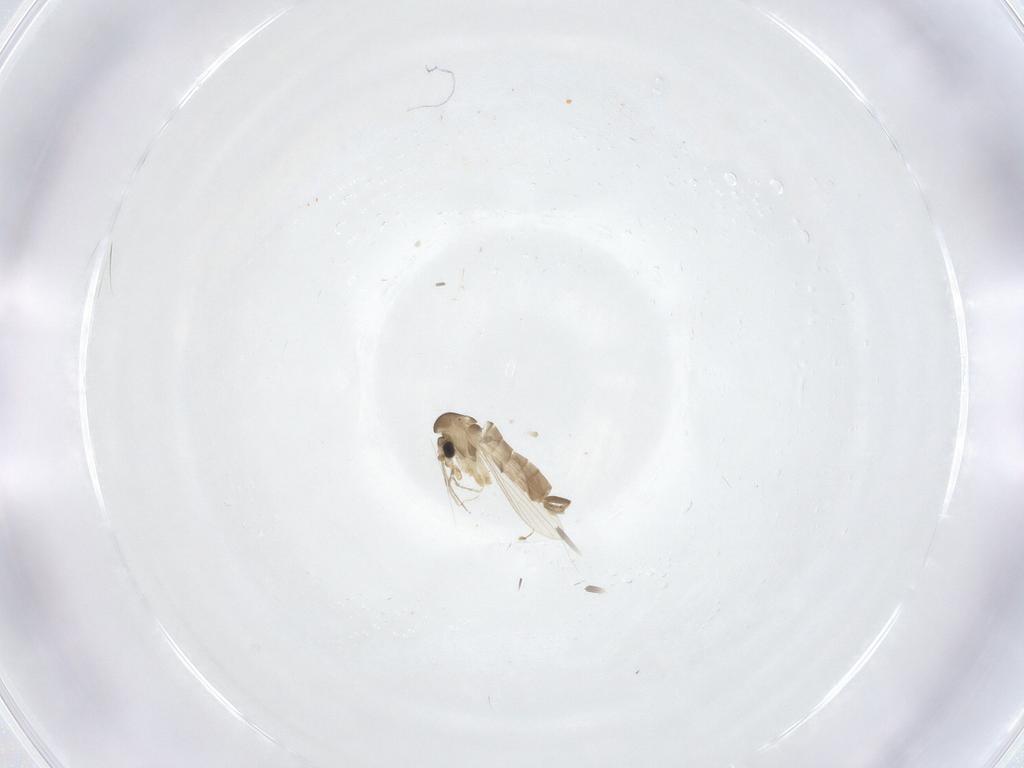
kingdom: Animalia
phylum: Arthropoda
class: Insecta
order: Diptera
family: Psychodidae
